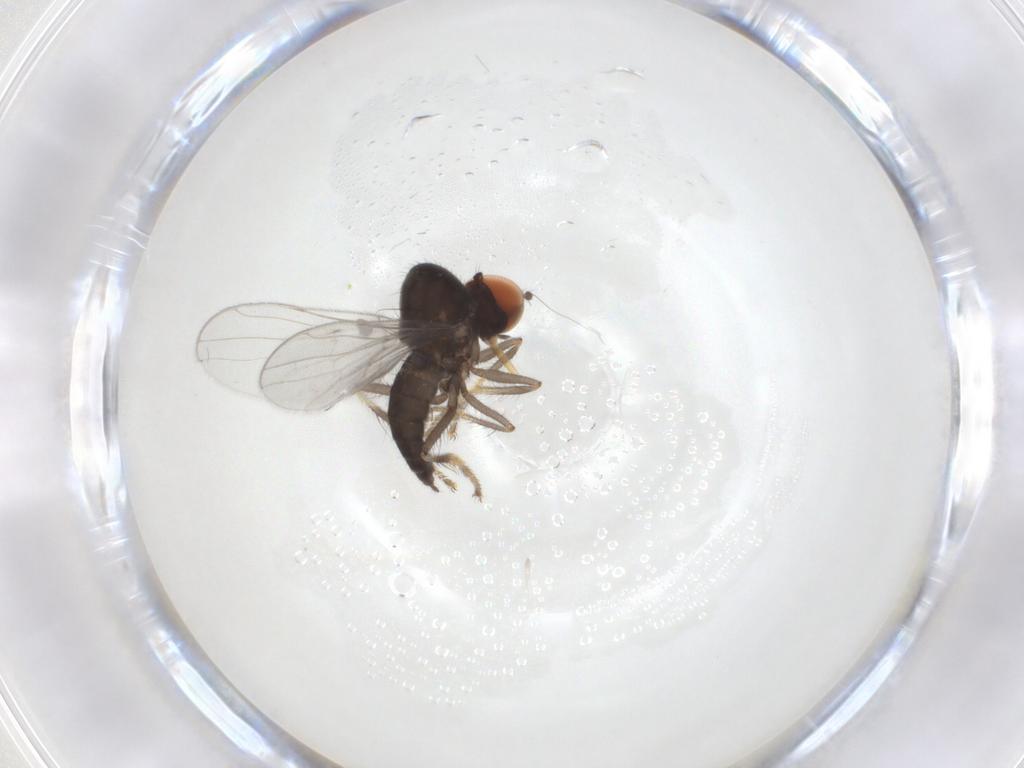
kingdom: Animalia
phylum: Arthropoda
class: Insecta
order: Diptera
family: Hybotidae
